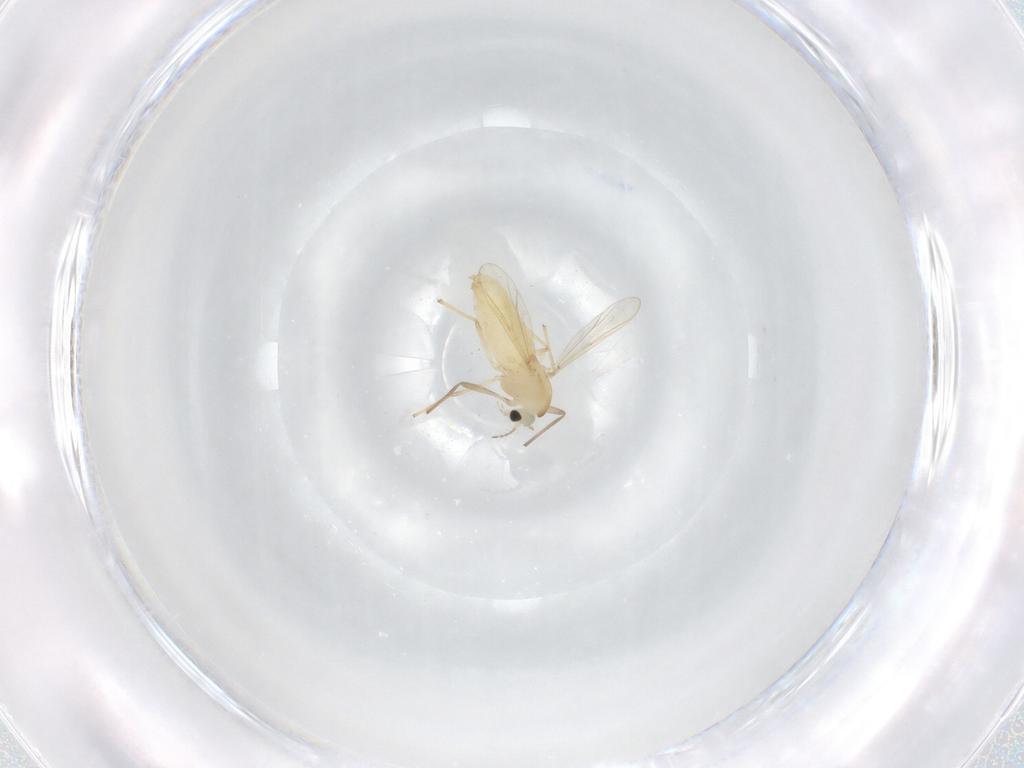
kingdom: Animalia
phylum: Arthropoda
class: Insecta
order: Diptera
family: Chironomidae
